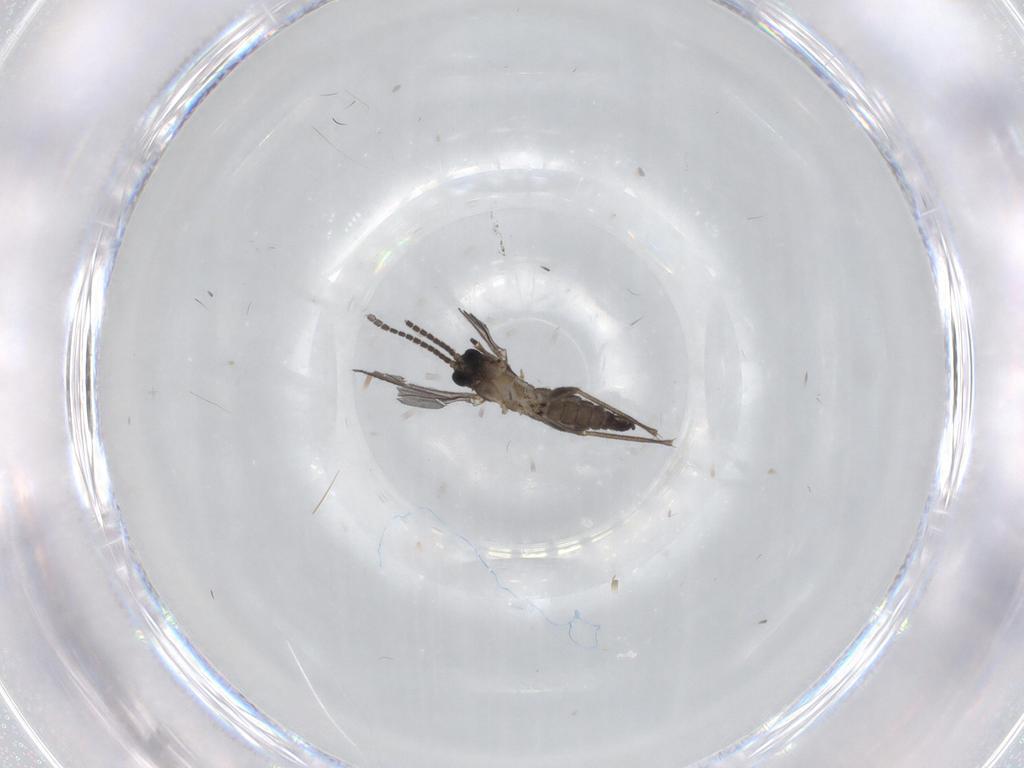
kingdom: Animalia
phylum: Arthropoda
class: Insecta
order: Diptera
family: Sciaridae
